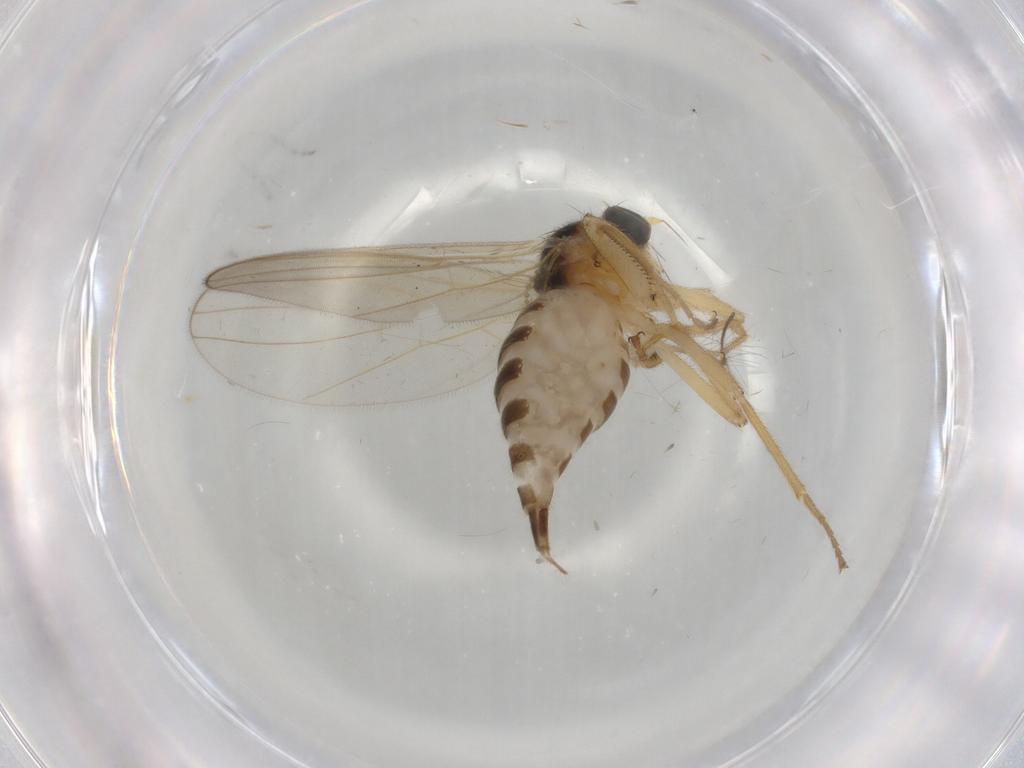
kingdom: Animalia
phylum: Arthropoda
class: Insecta
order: Diptera
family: Hybotidae
